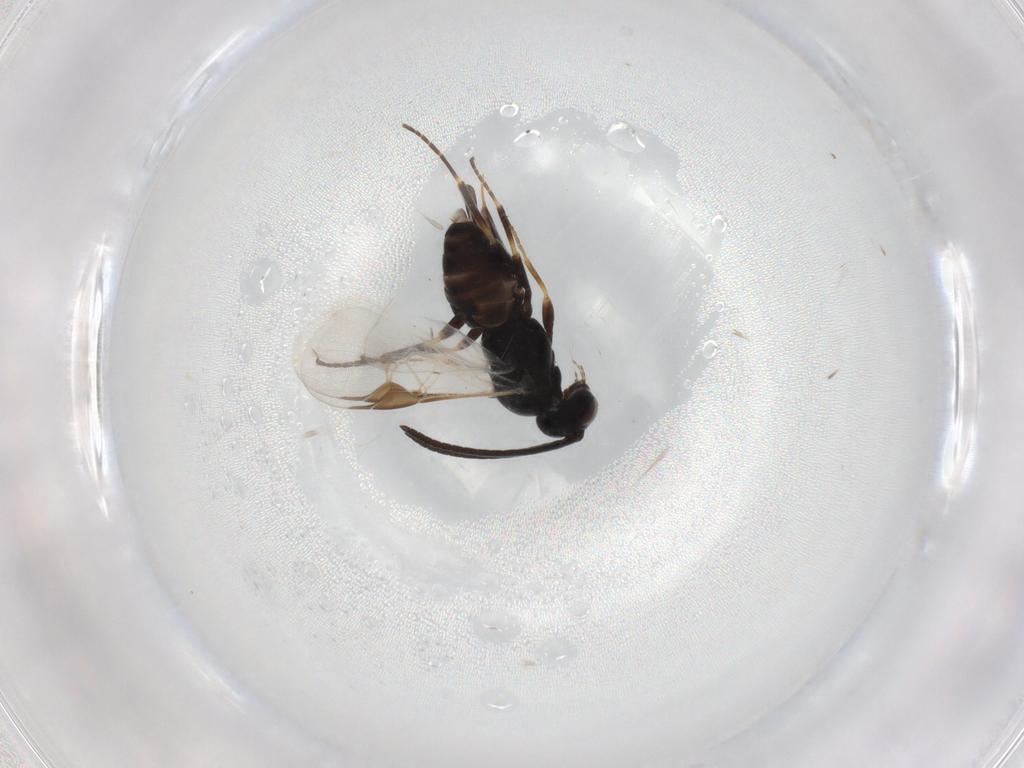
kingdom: Animalia
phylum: Arthropoda
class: Insecta
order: Hymenoptera
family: Braconidae
